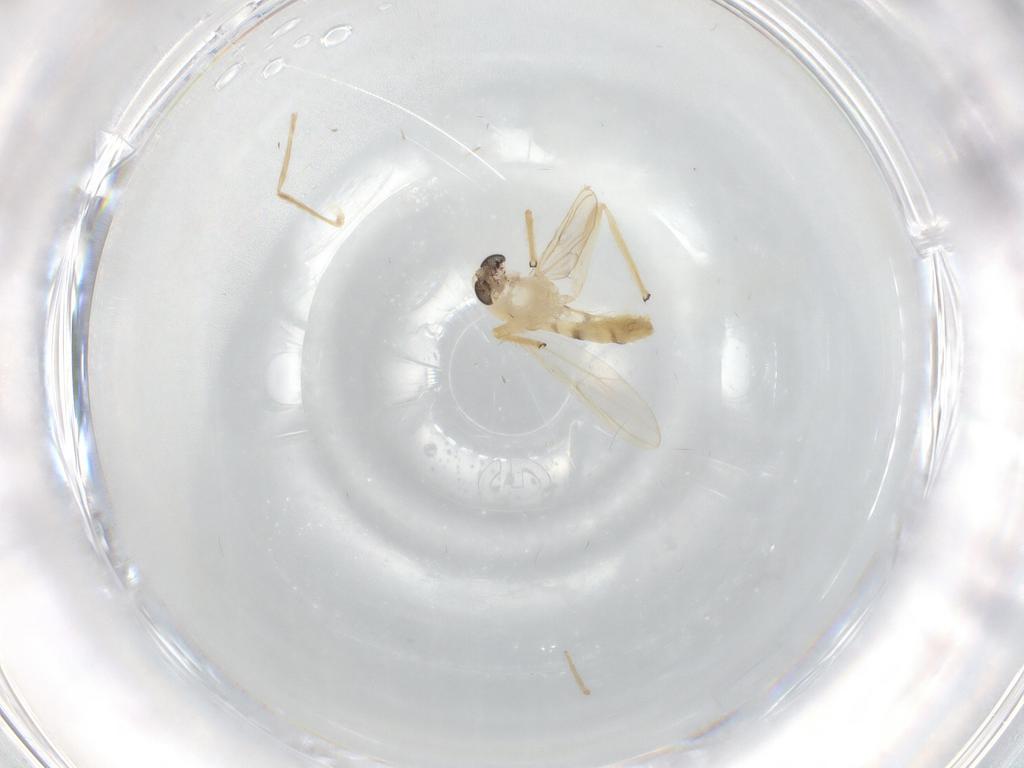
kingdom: Animalia
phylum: Arthropoda
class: Insecta
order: Diptera
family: Chironomidae
